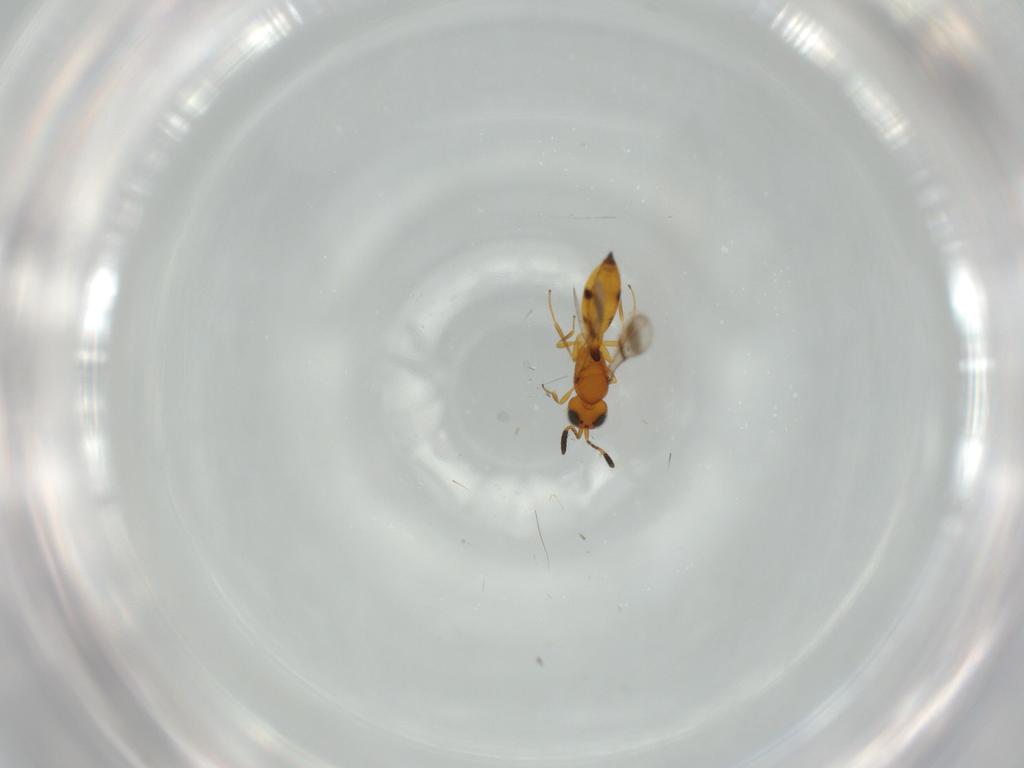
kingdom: Animalia
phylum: Arthropoda
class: Insecta
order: Hymenoptera
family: Scelionidae
